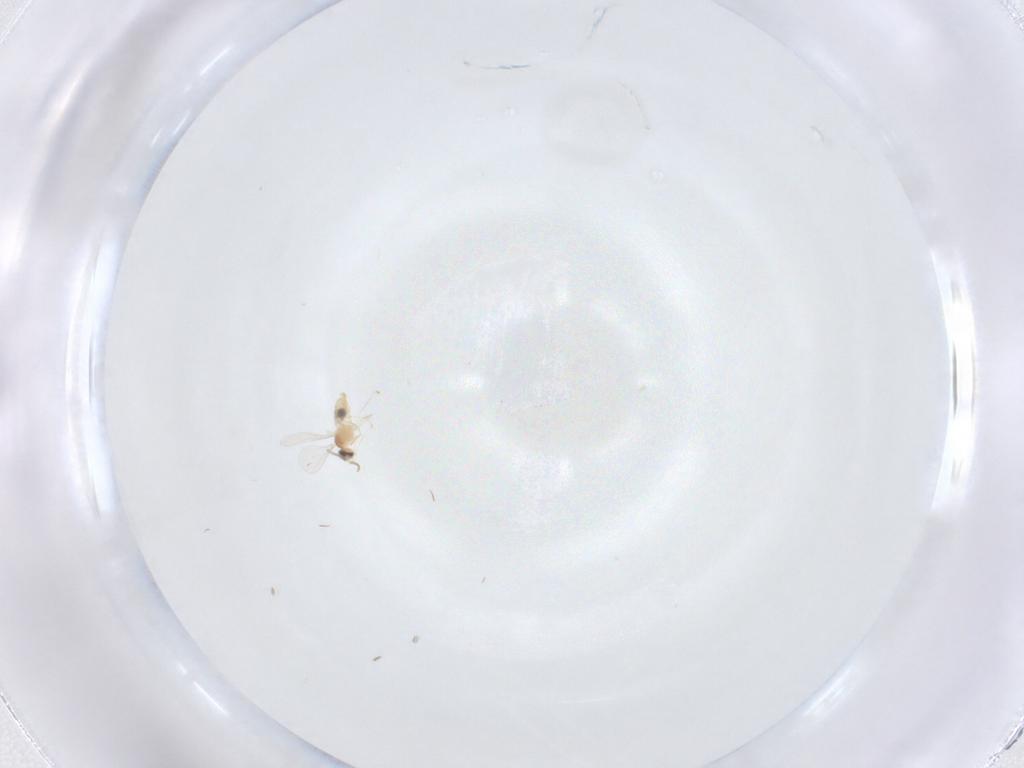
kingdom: Animalia
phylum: Arthropoda
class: Insecta
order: Diptera
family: Cecidomyiidae
